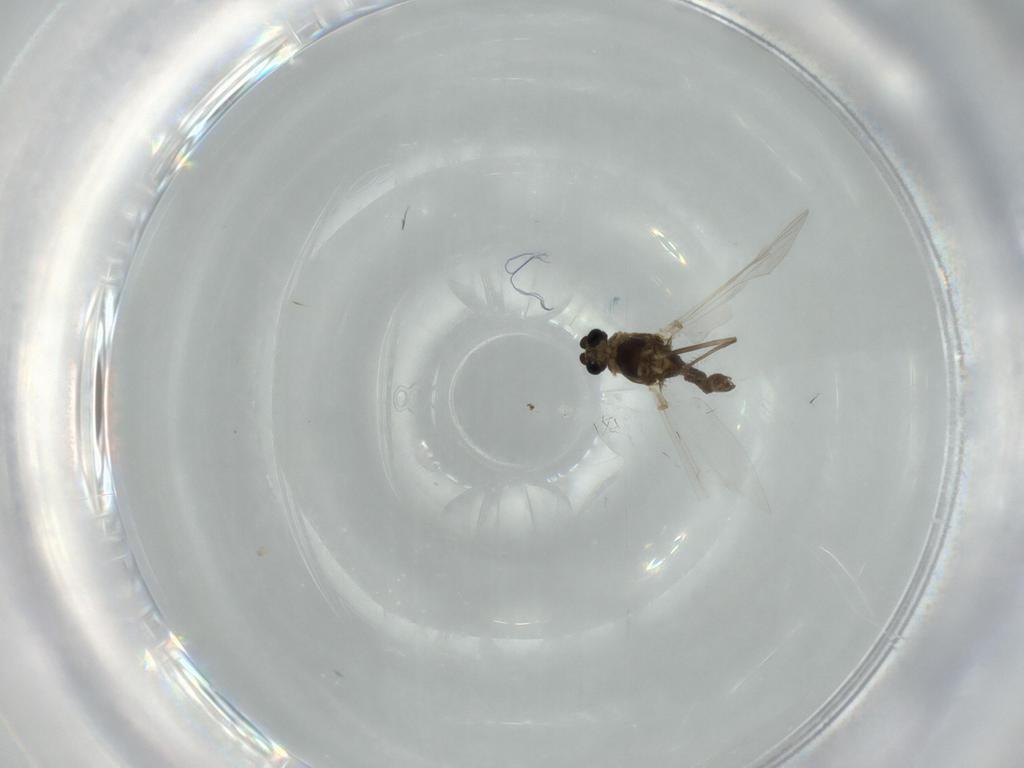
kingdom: Animalia
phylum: Arthropoda
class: Insecta
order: Diptera
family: Chironomidae
